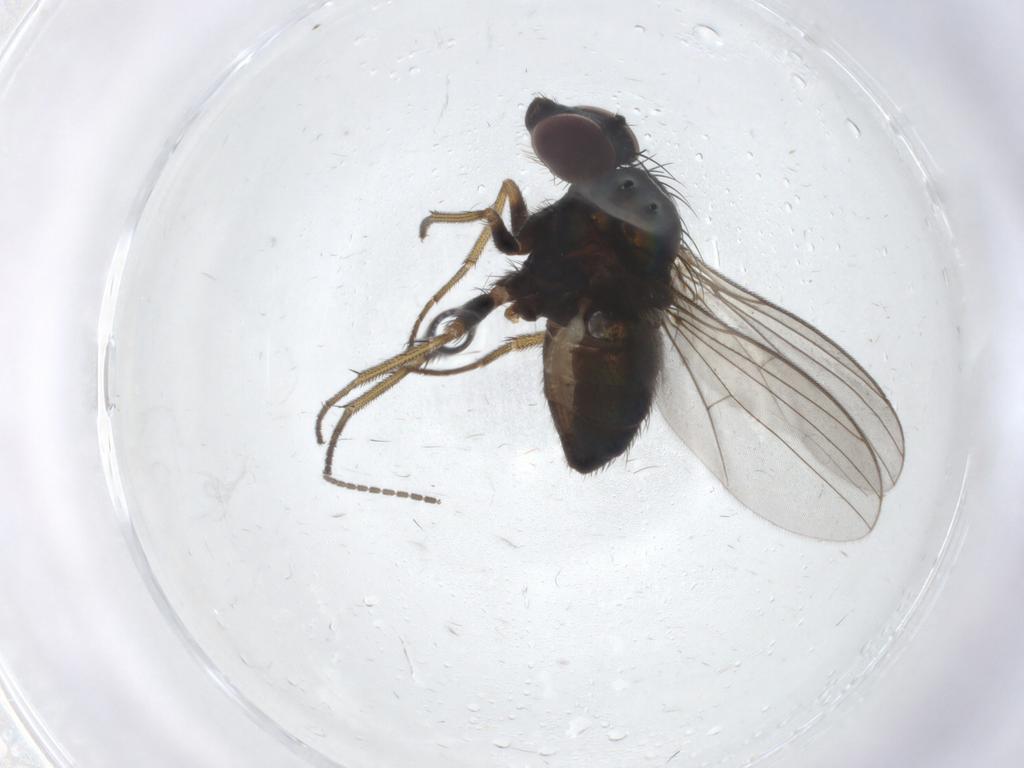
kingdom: Animalia
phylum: Arthropoda
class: Insecta
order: Diptera
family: Dolichopodidae
